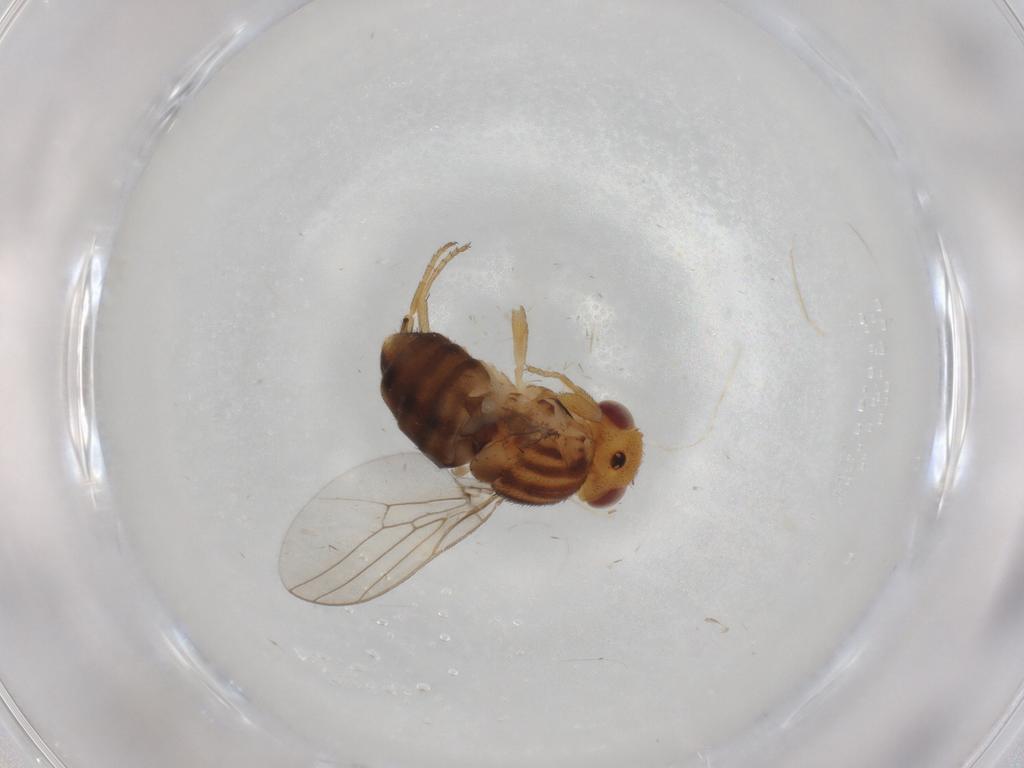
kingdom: Animalia
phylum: Arthropoda
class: Insecta
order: Diptera
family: Chloropidae
